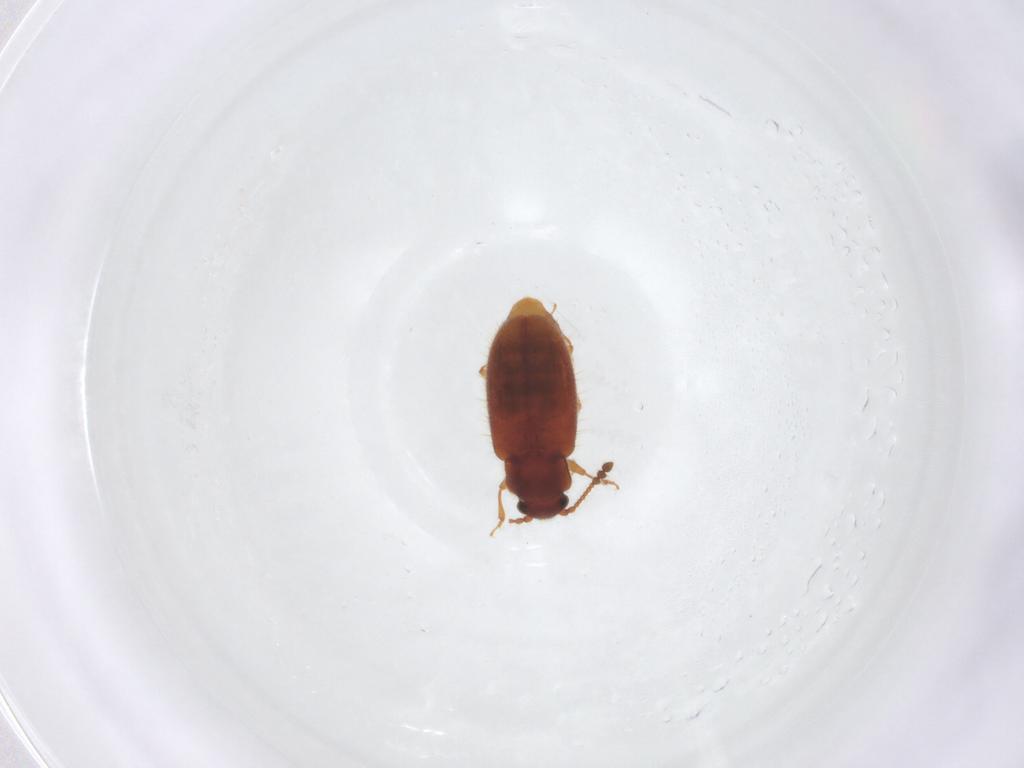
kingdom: Animalia
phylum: Arthropoda
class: Insecta
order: Coleoptera
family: Cryptophagidae
